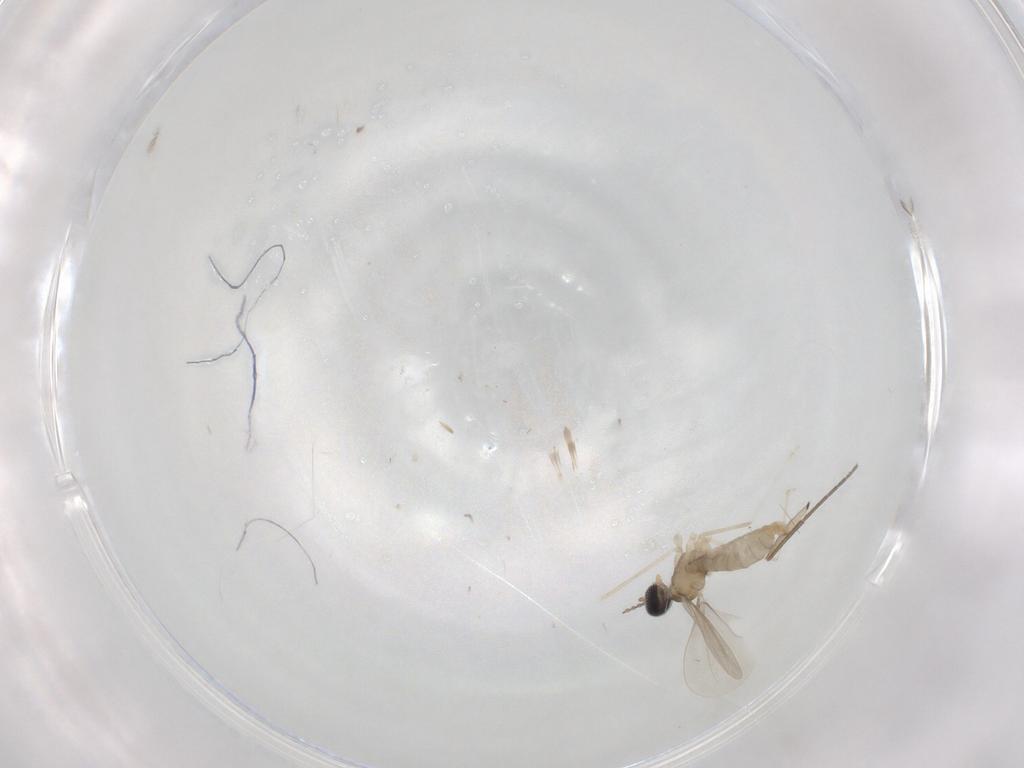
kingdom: Animalia
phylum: Arthropoda
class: Insecta
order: Diptera
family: Cecidomyiidae
